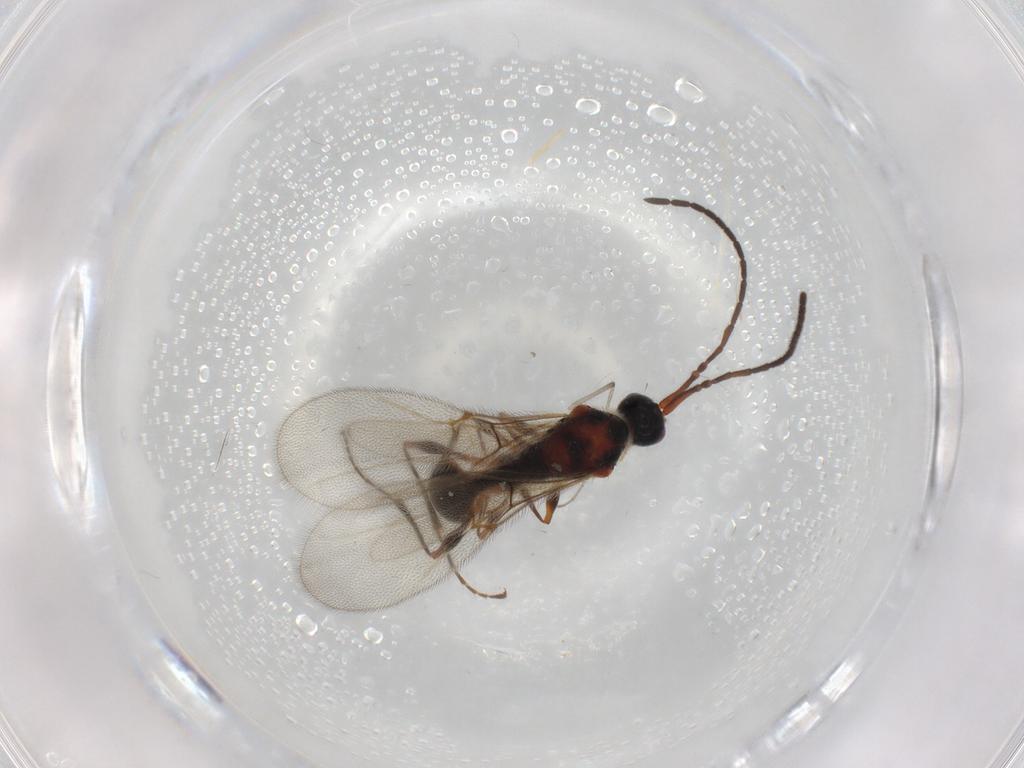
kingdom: Animalia
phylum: Arthropoda
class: Insecta
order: Hymenoptera
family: Diapriidae
